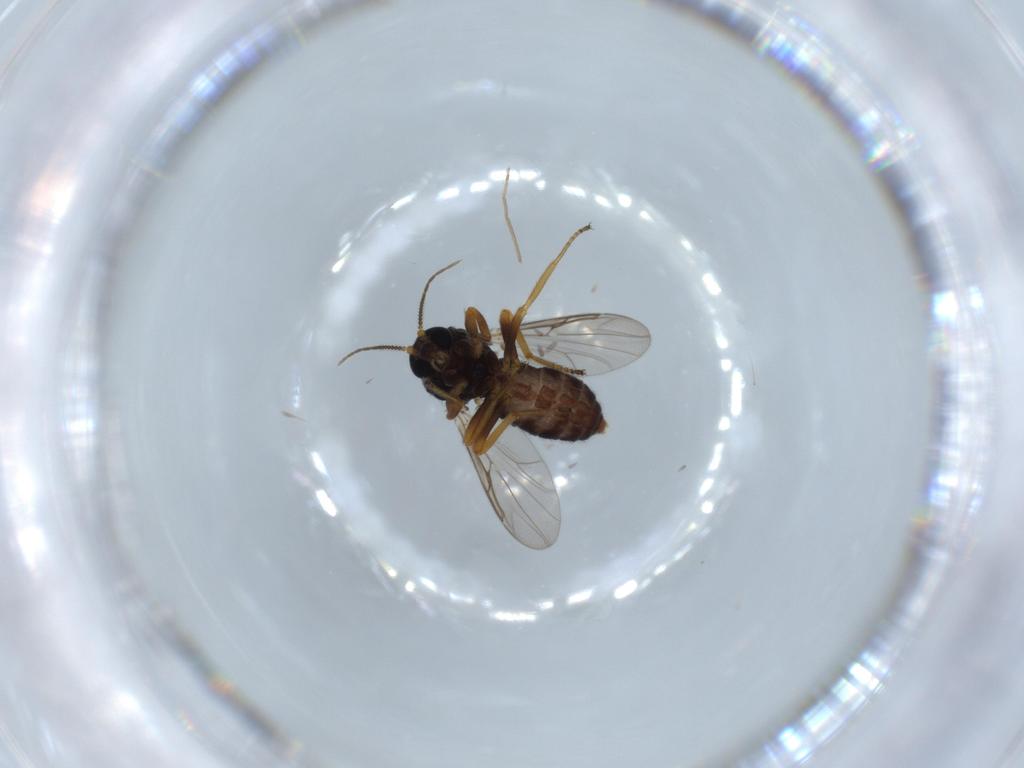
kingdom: Animalia
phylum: Arthropoda
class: Insecta
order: Diptera
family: Ceratopogonidae
